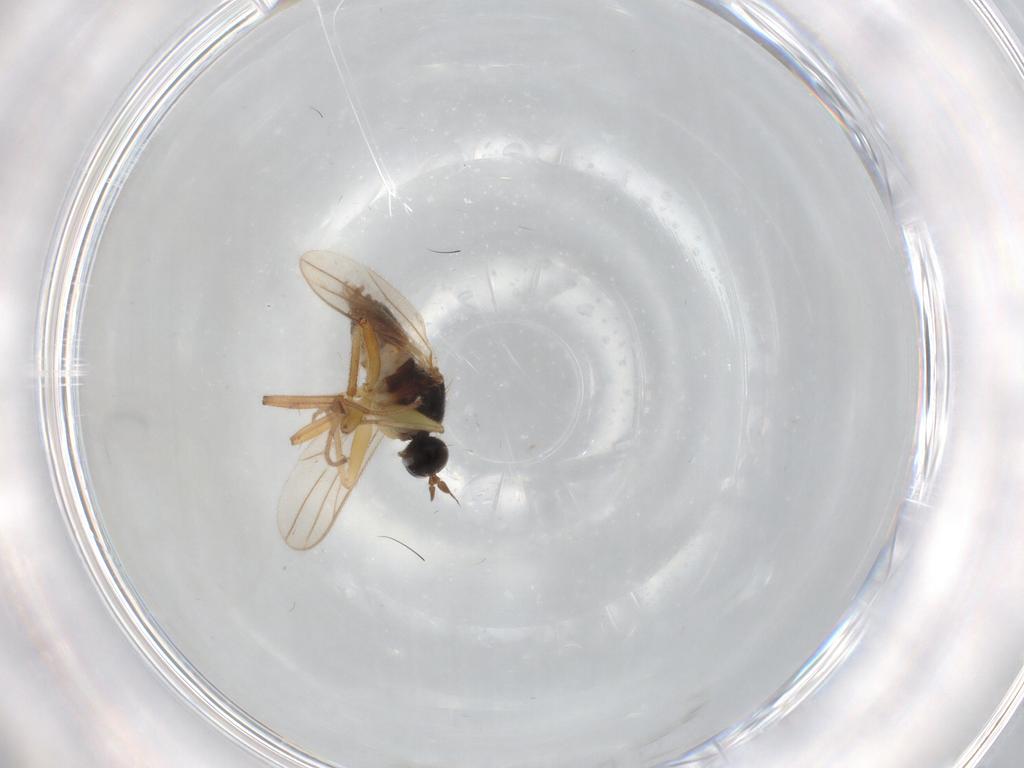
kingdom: Animalia
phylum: Arthropoda
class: Insecta
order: Diptera
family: Hybotidae
